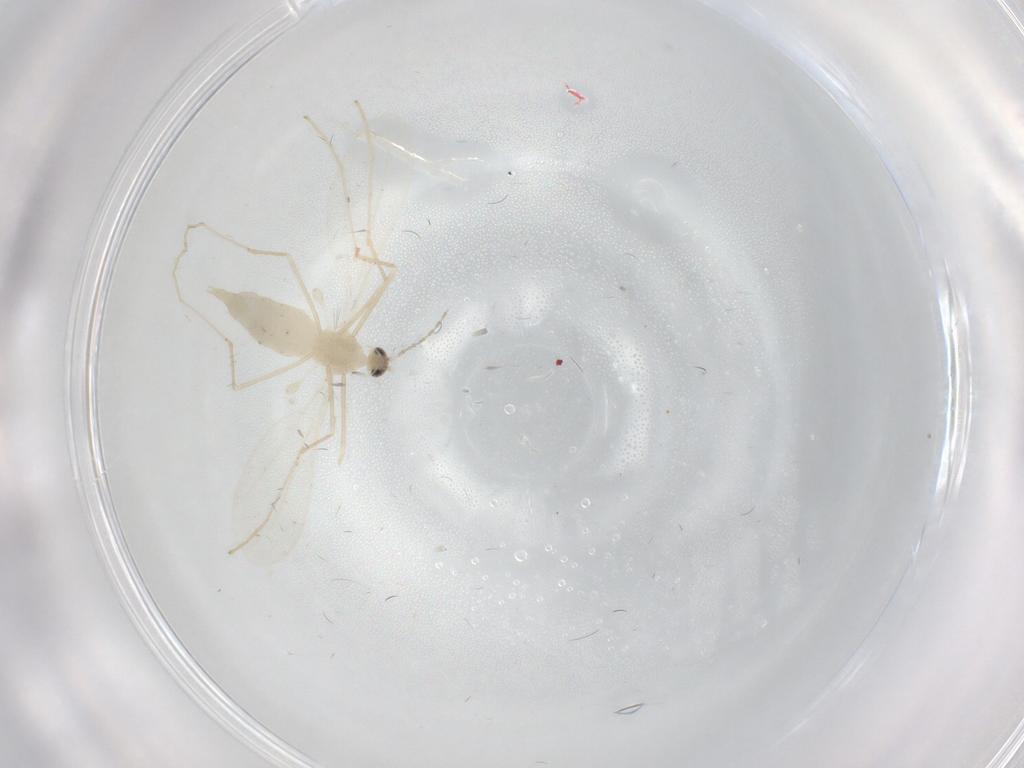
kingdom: Animalia
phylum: Arthropoda
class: Insecta
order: Diptera
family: Cecidomyiidae
